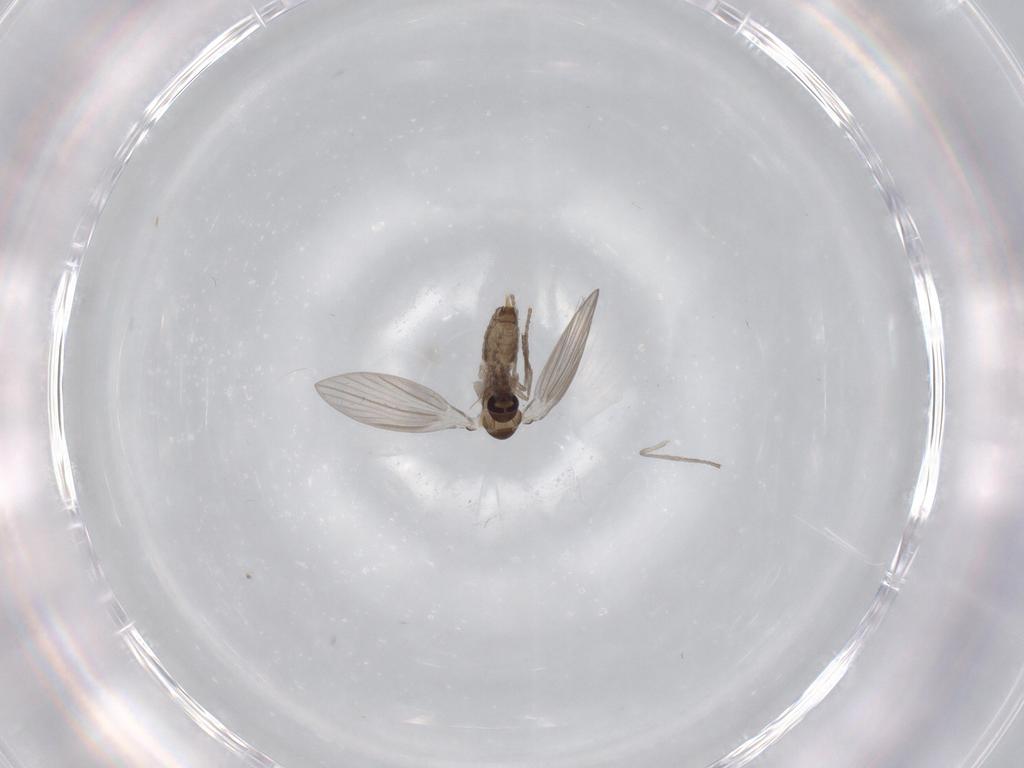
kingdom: Animalia
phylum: Arthropoda
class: Insecta
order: Diptera
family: Psychodidae
